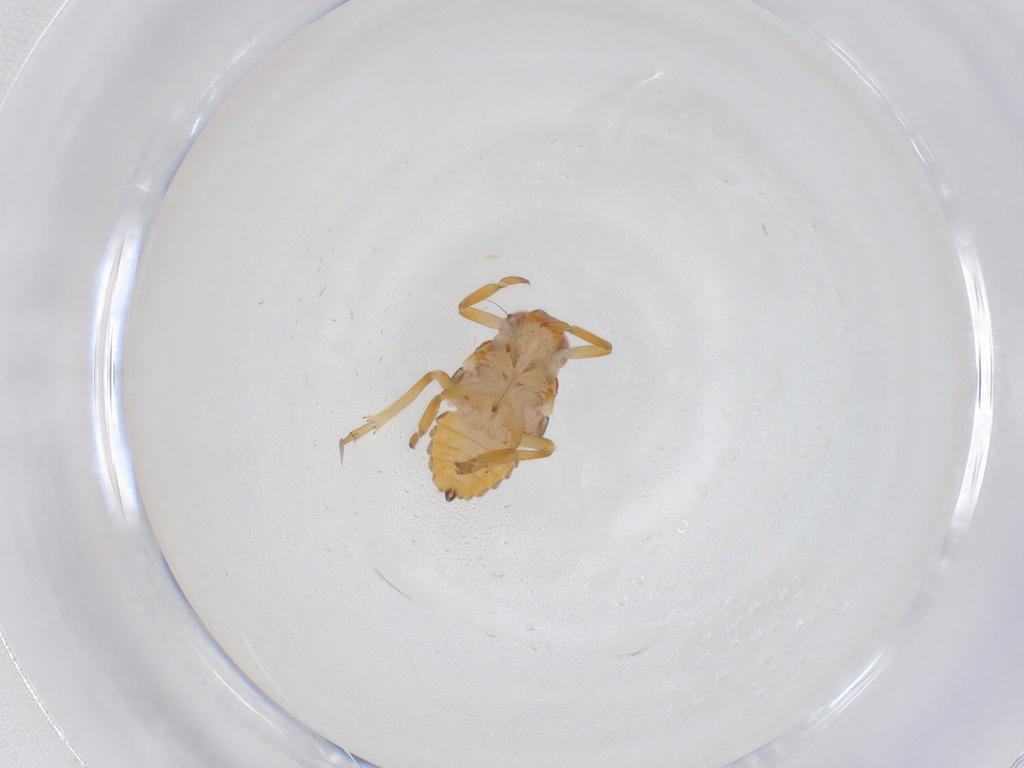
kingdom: Animalia
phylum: Arthropoda
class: Insecta
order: Hemiptera
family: Issidae
